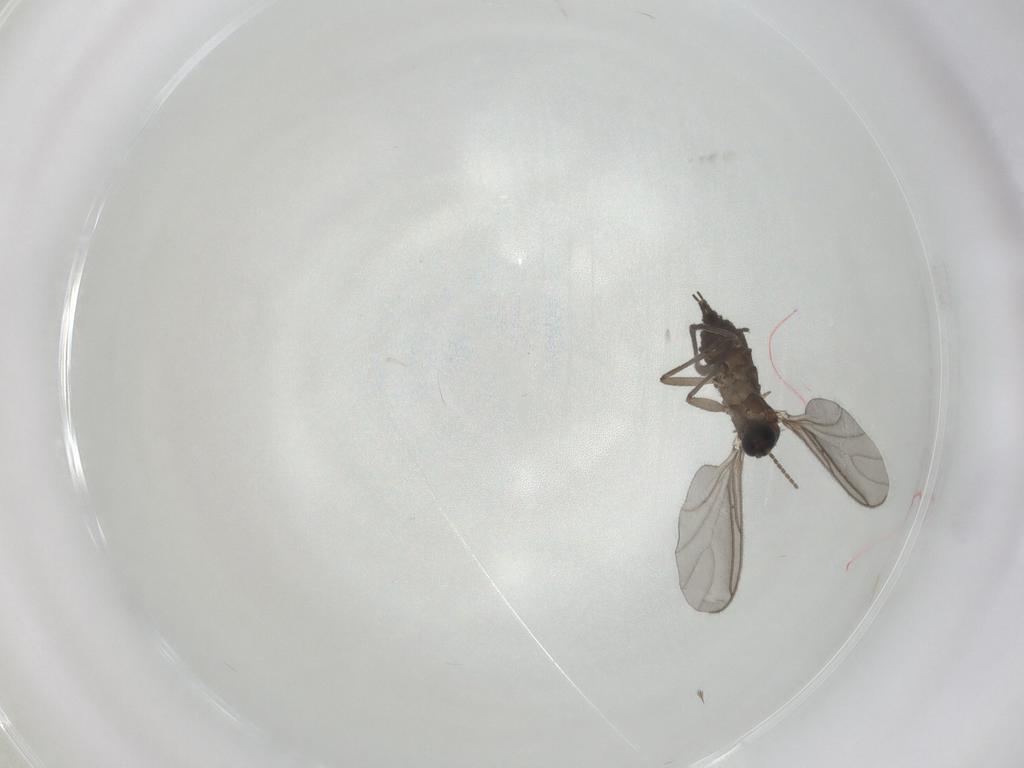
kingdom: Animalia
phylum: Arthropoda
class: Insecta
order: Diptera
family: Sciaridae
